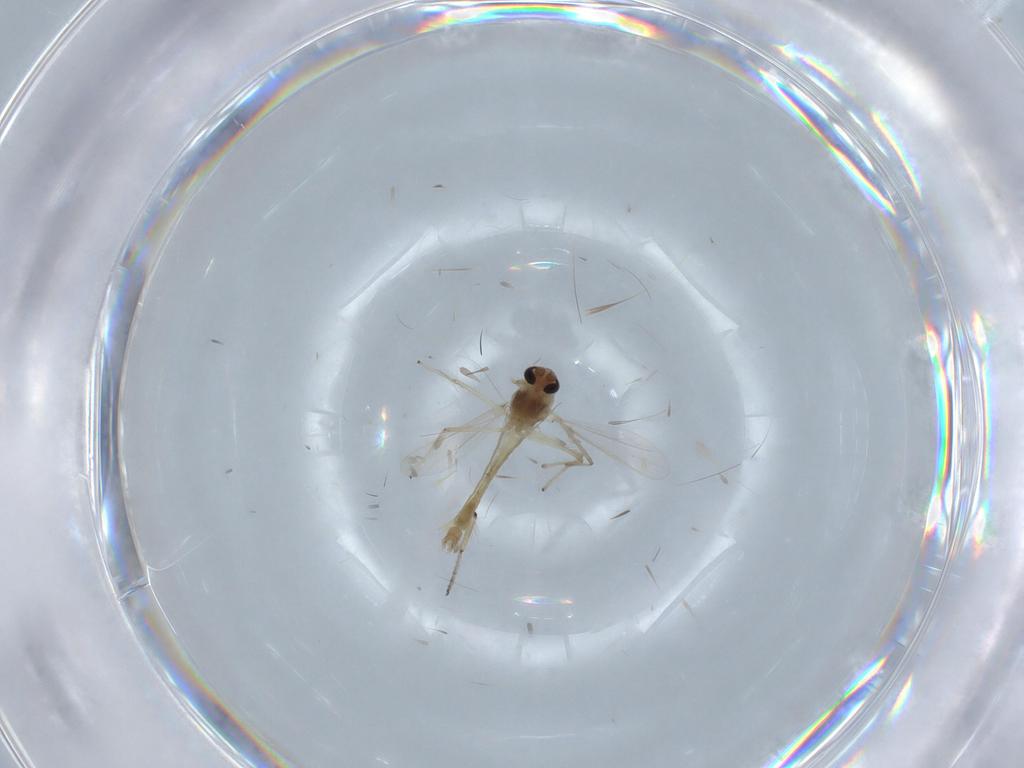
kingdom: Animalia
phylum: Arthropoda
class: Insecta
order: Diptera
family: Chironomidae
